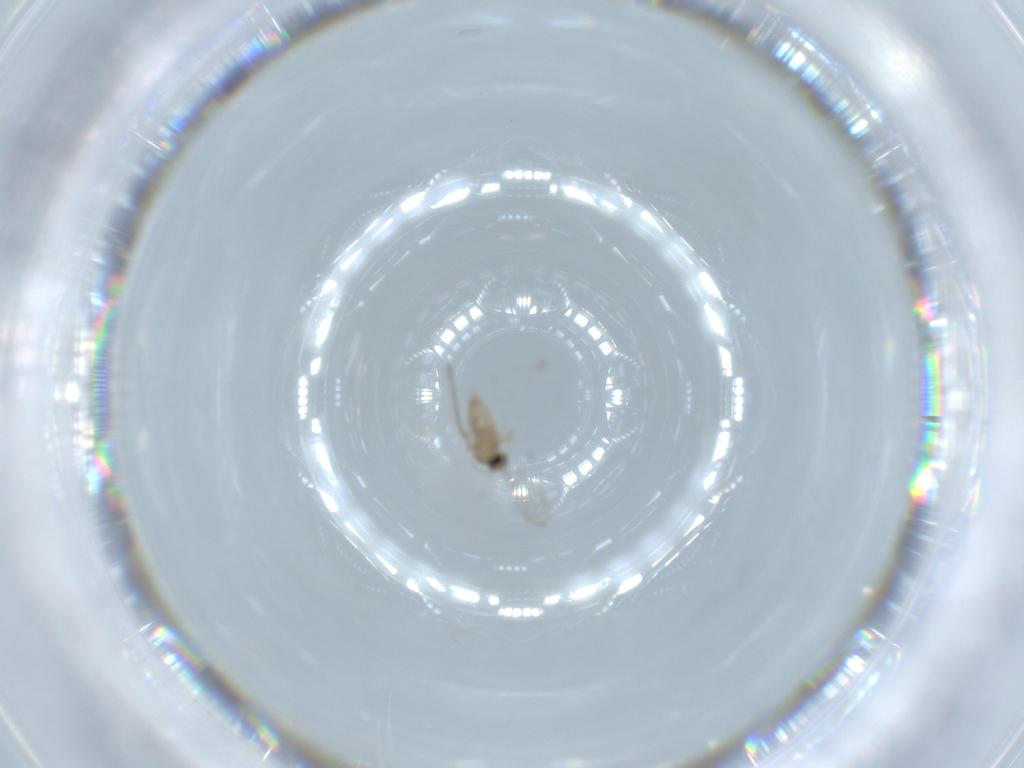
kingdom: Animalia
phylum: Arthropoda
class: Insecta
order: Diptera
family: Cecidomyiidae
